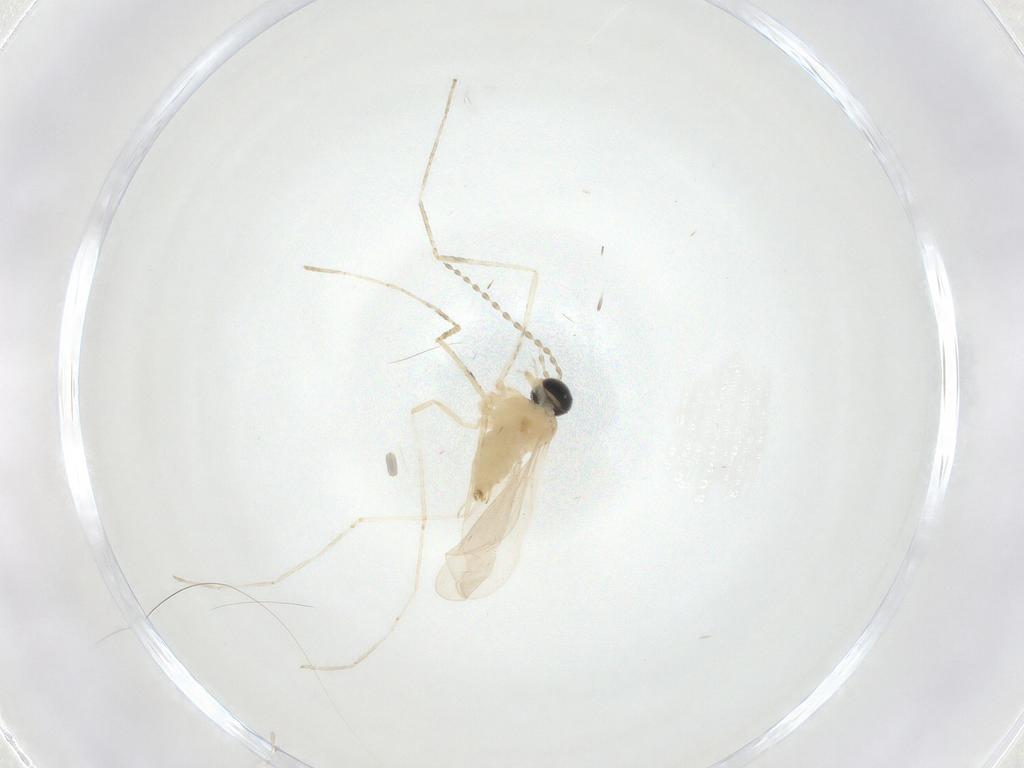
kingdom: Animalia
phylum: Arthropoda
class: Insecta
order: Diptera
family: Cecidomyiidae
